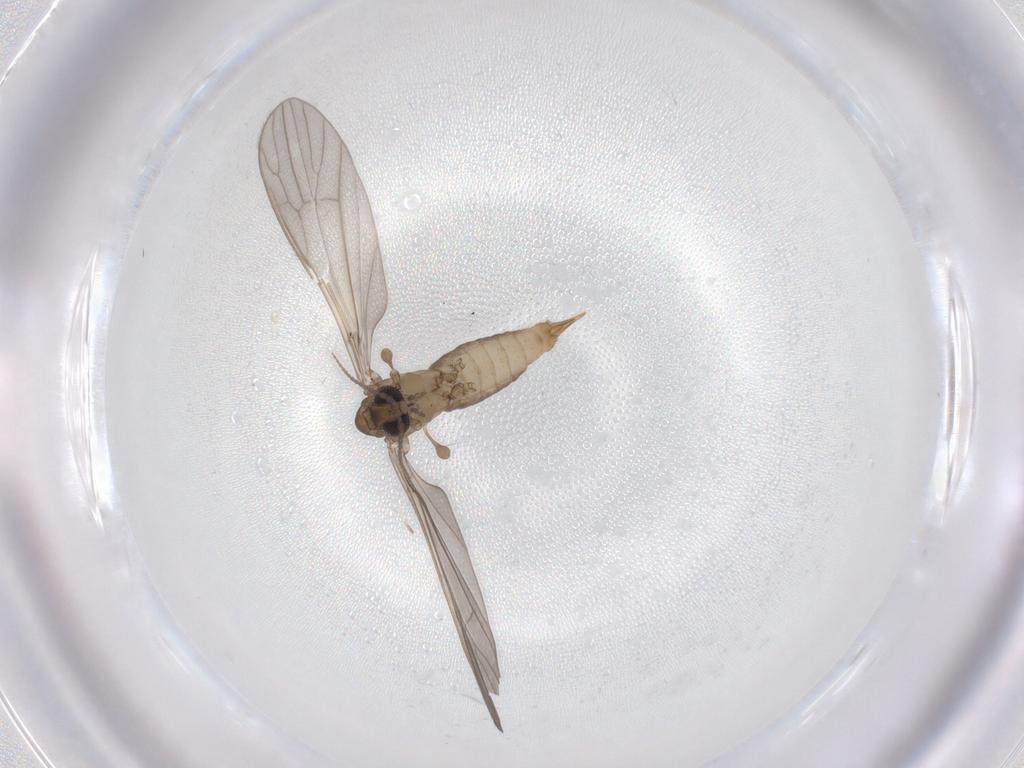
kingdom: Animalia
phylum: Arthropoda
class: Insecta
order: Diptera
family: Limoniidae
